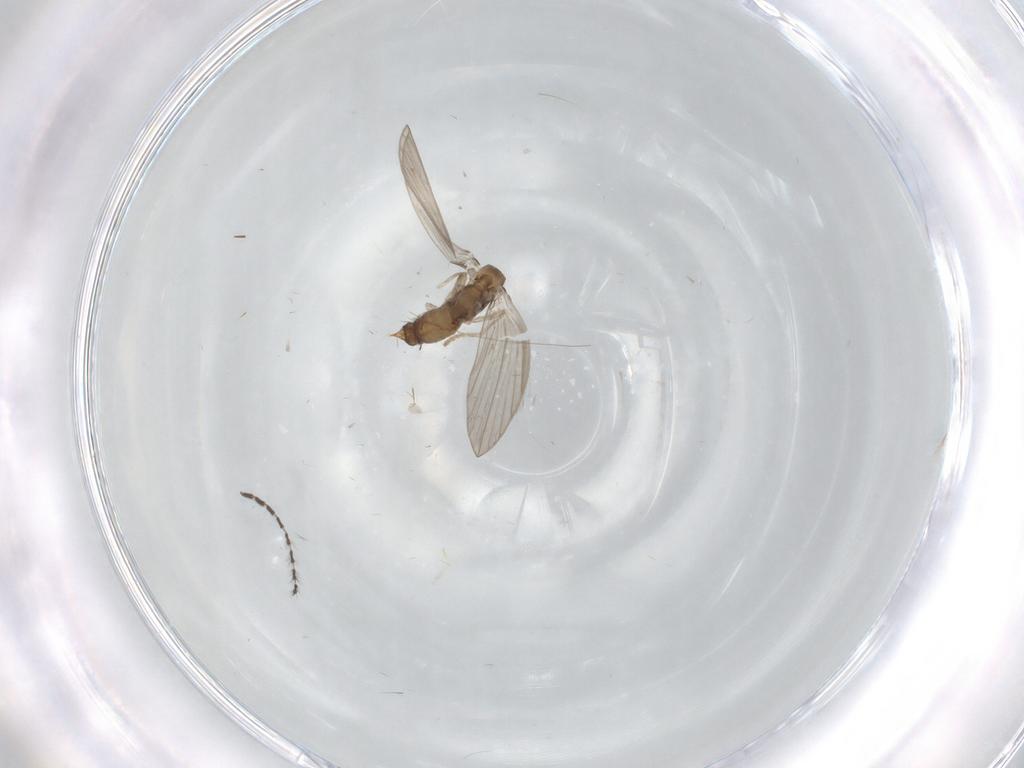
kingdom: Animalia
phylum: Arthropoda
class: Insecta
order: Diptera
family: Psychodidae
